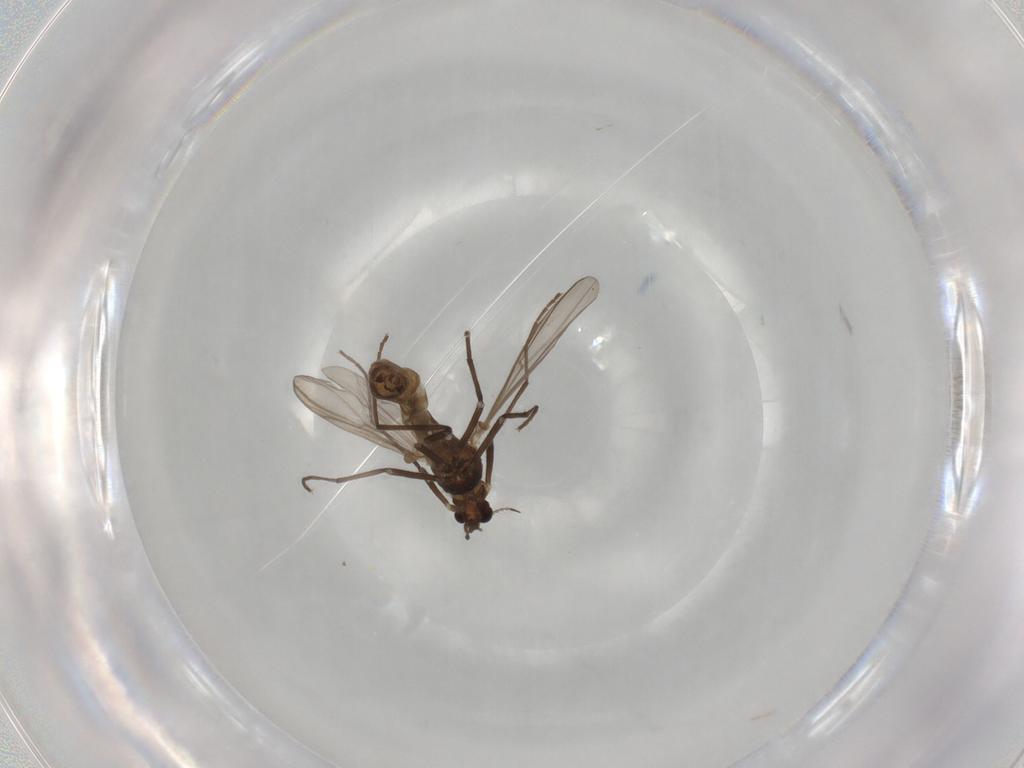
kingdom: Animalia
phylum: Arthropoda
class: Insecta
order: Diptera
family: Chironomidae
